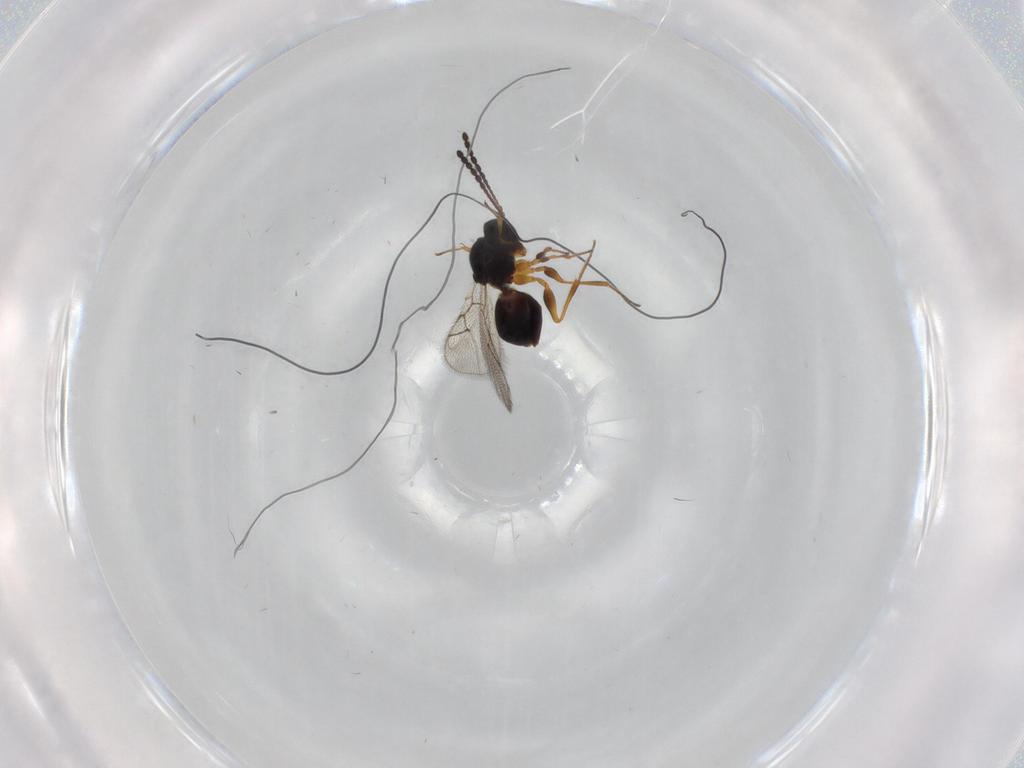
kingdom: Animalia
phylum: Arthropoda
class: Insecta
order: Hymenoptera
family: Figitidae
